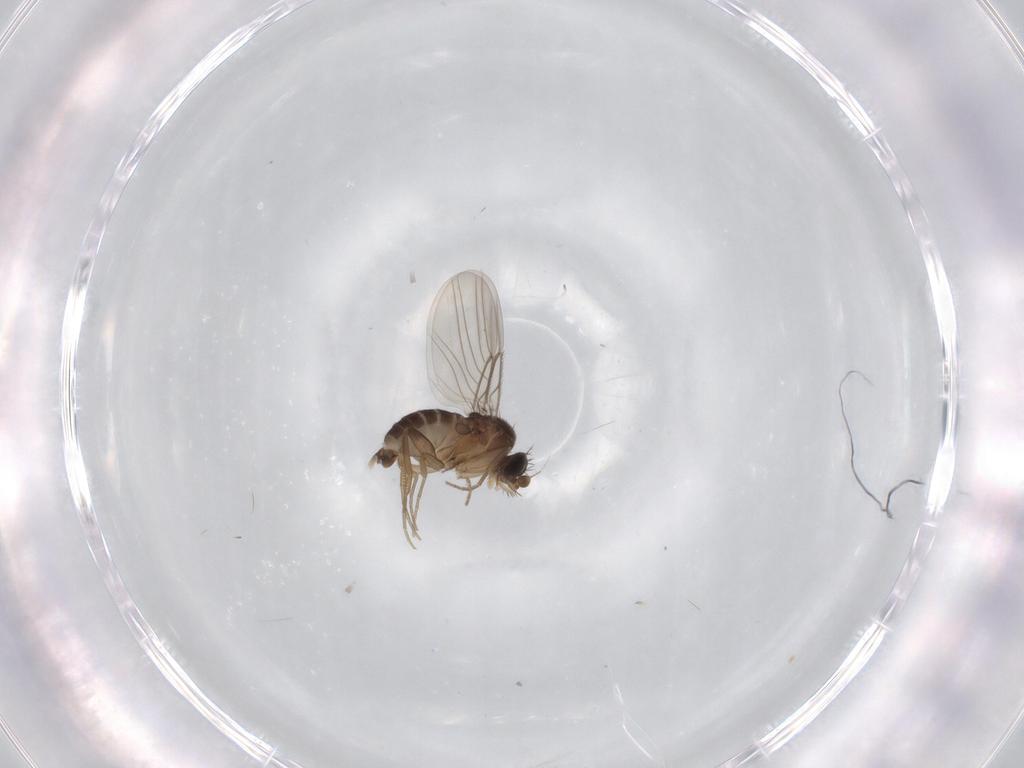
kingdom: Animalia
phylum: Arthropoda
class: Insecta
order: Diptera
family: Phoridae
